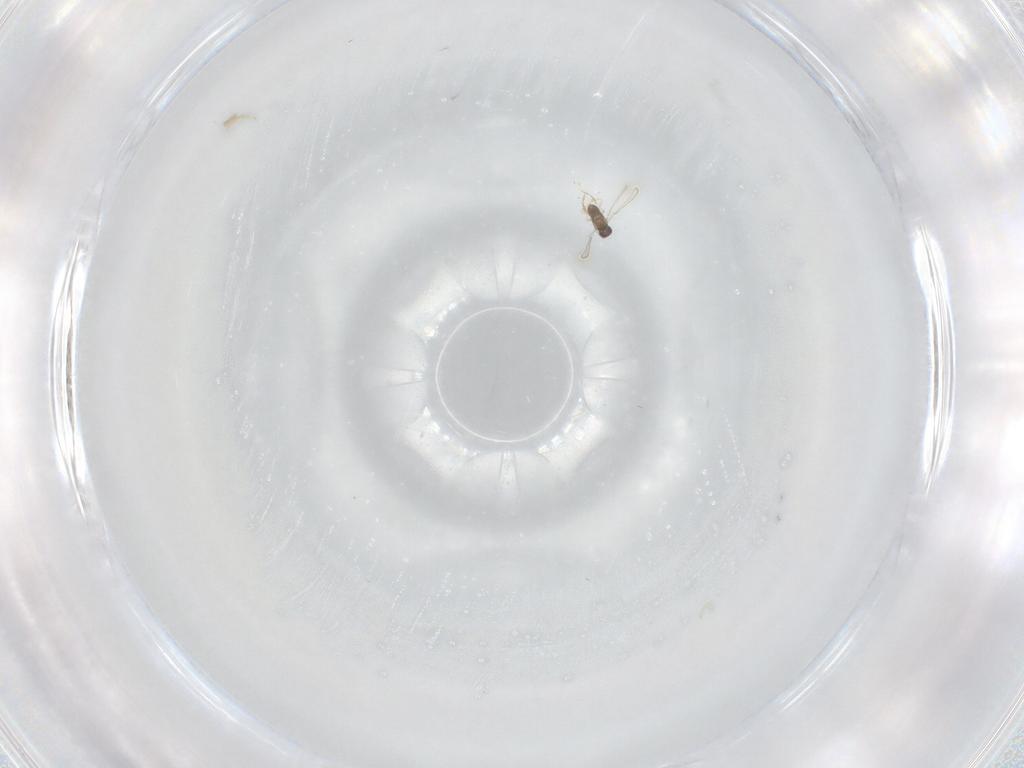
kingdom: Animalia
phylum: Arthropoda
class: Insecta
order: Hymenoptera
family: Mymaridae
